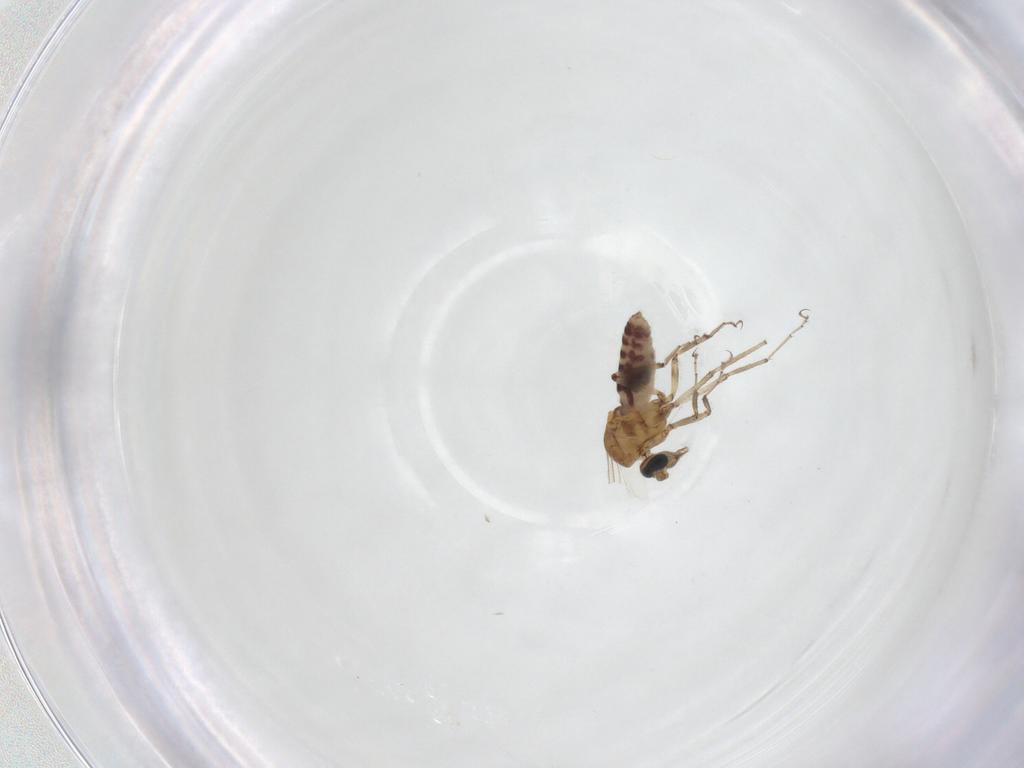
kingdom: Animalia
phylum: Arthropoda
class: Insecta
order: Diptera
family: Ceratopogonidae
